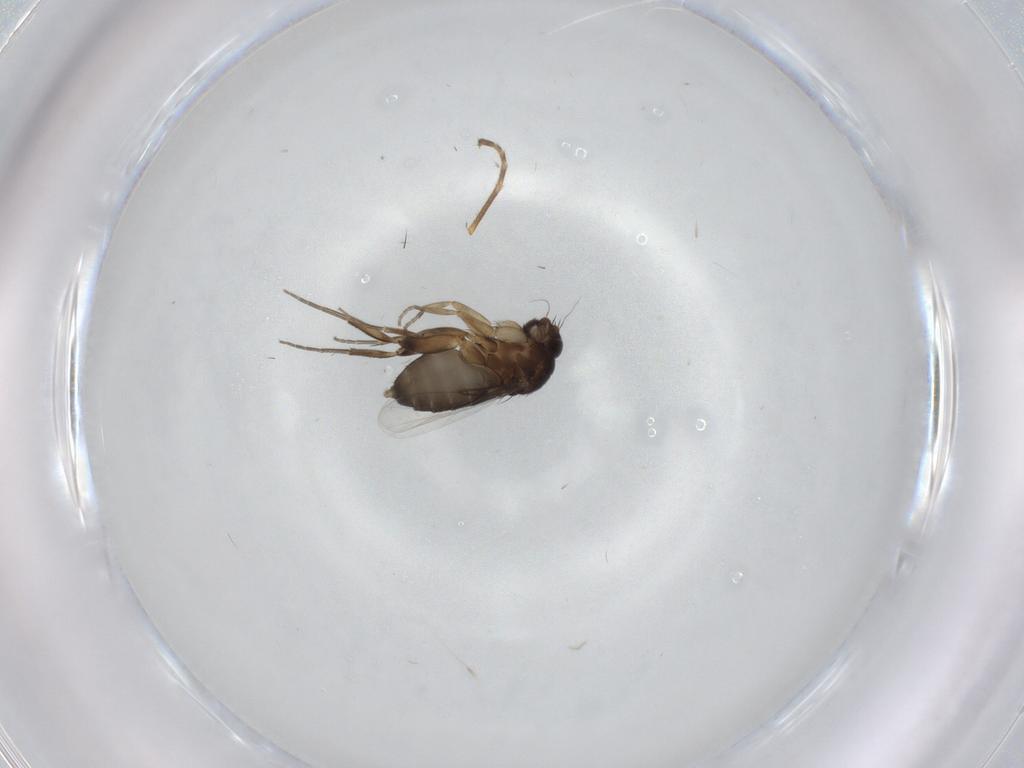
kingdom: Animalia
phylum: Arthropoda
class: Insecta
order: Diptera
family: Phoridae
